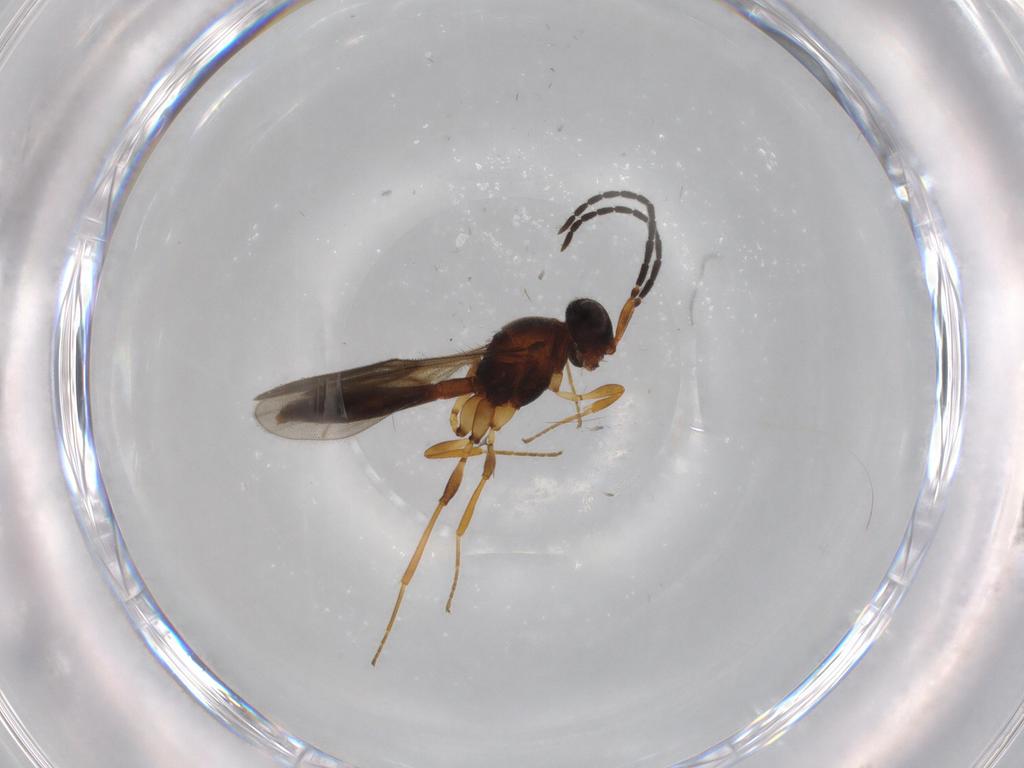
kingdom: Animalia
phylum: Arthropoda
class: Insecta
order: Hymenoptera
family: Scelionidae
